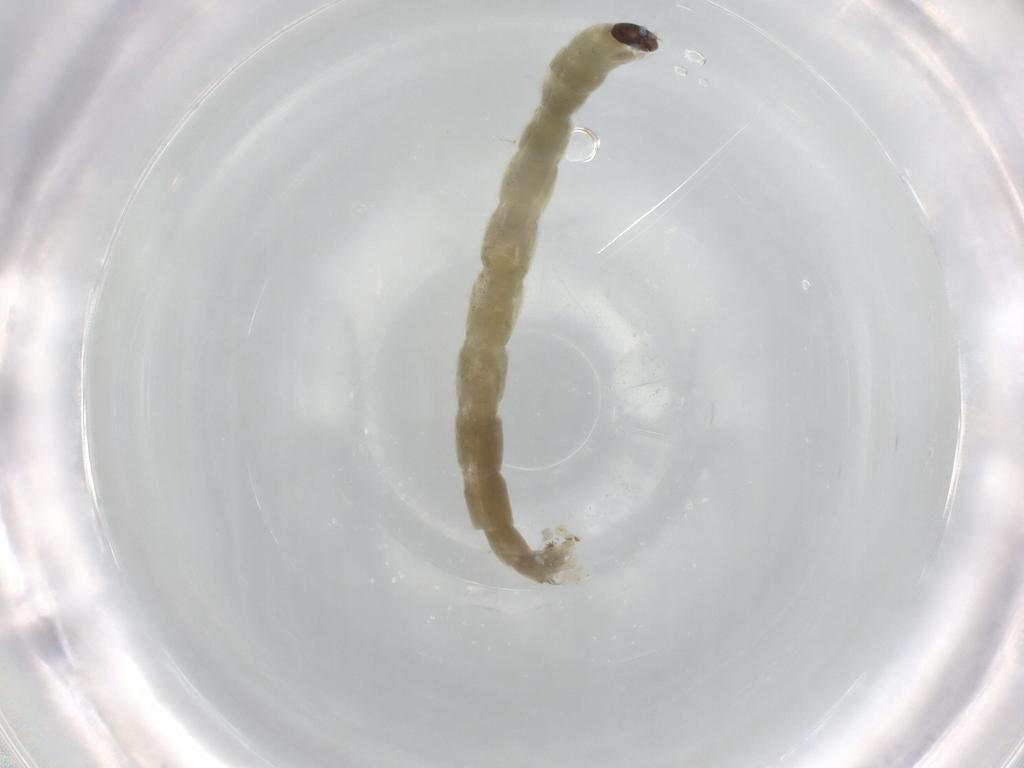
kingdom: Animalia
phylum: Arthropoda
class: Insecta
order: Diptera
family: Chironomidae
